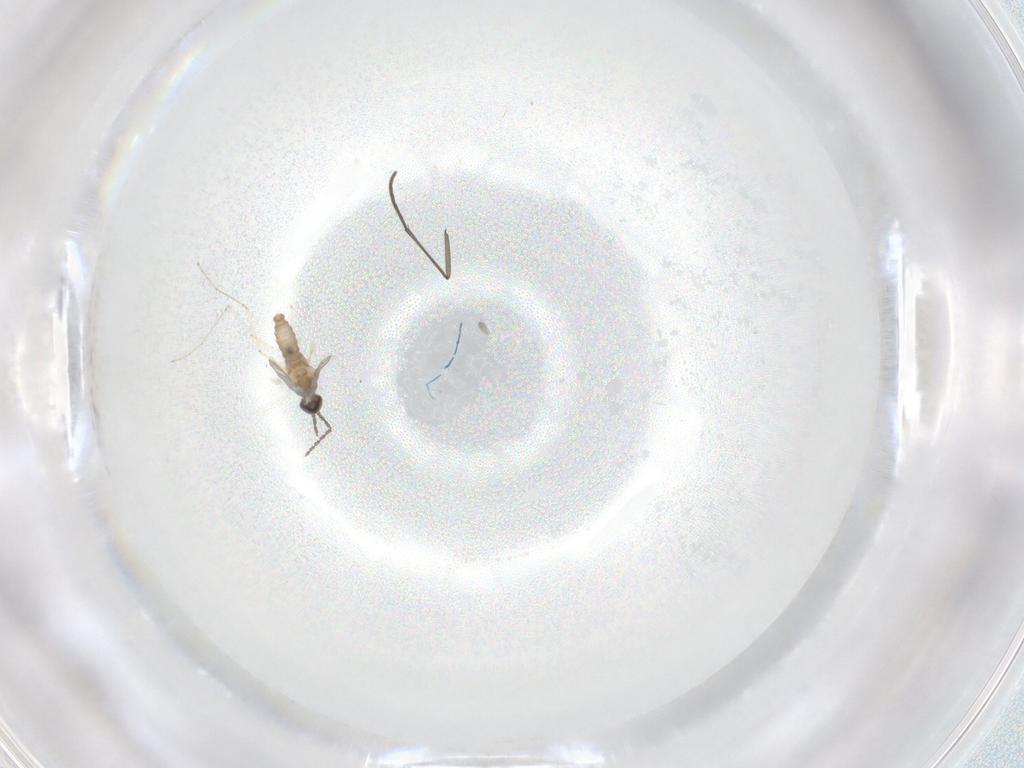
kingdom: Animalia
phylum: Arthropoda
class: Insecta
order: Diptera
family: Cecidomyiidae
